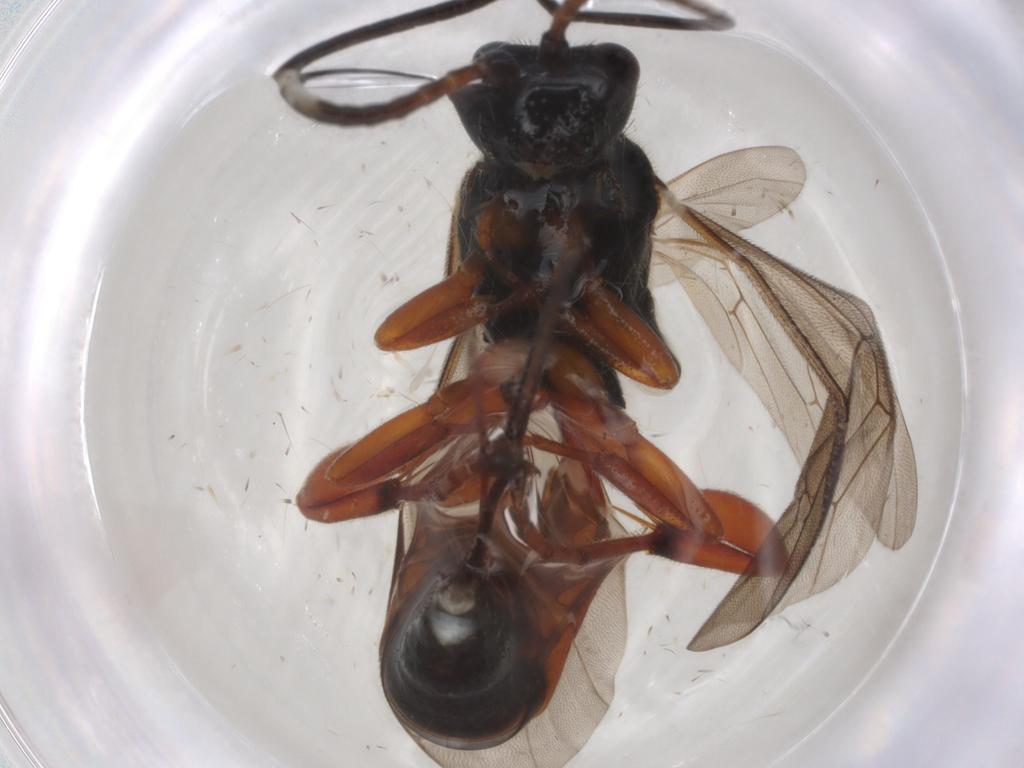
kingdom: Animalia
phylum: Arthropoda
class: Insecta
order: Hymenoptera
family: Ichneumonidae
